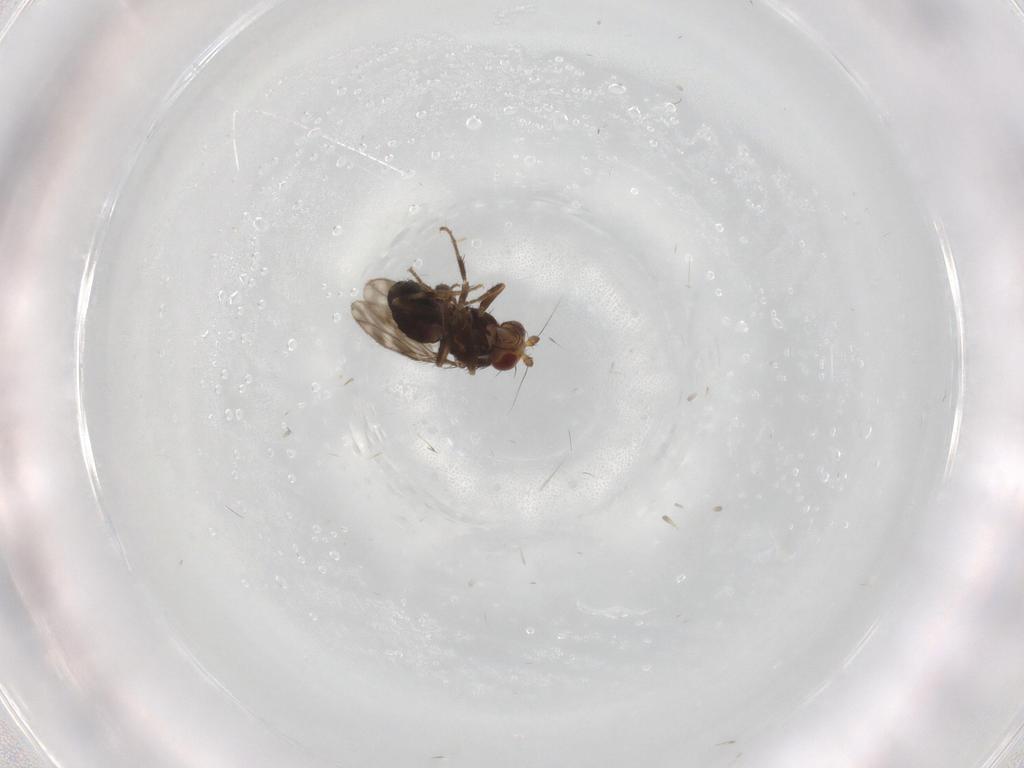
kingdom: Animalia
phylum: Arthropoda
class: Insecta
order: Diptera
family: Sphaeroceridae
